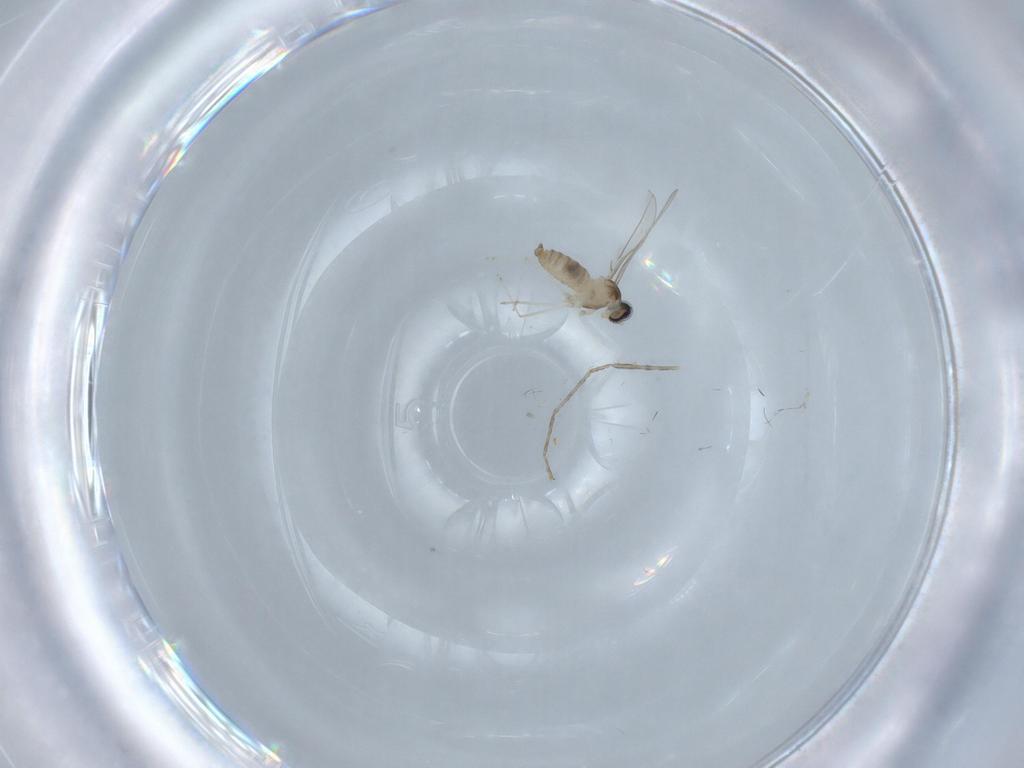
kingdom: Animalia
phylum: Arthropoda
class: Insecta
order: Diptera
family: Cecidomyiidae
